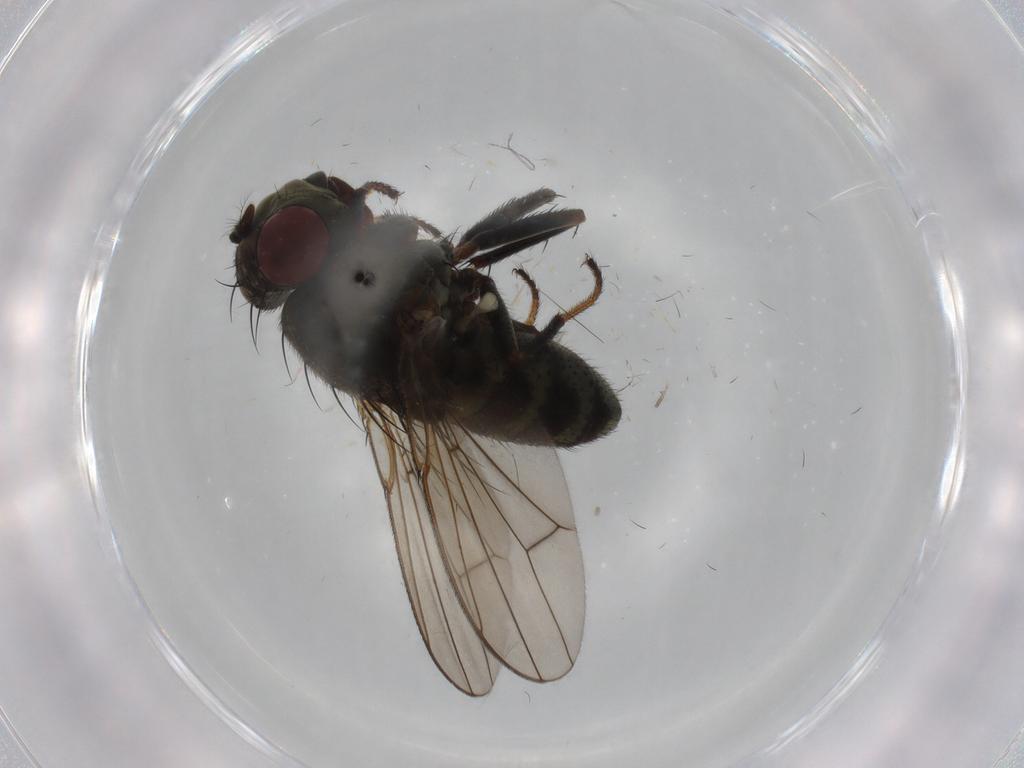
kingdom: Animalia
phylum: Arthropoda
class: Insecta
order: Diptera
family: Ephydridae
